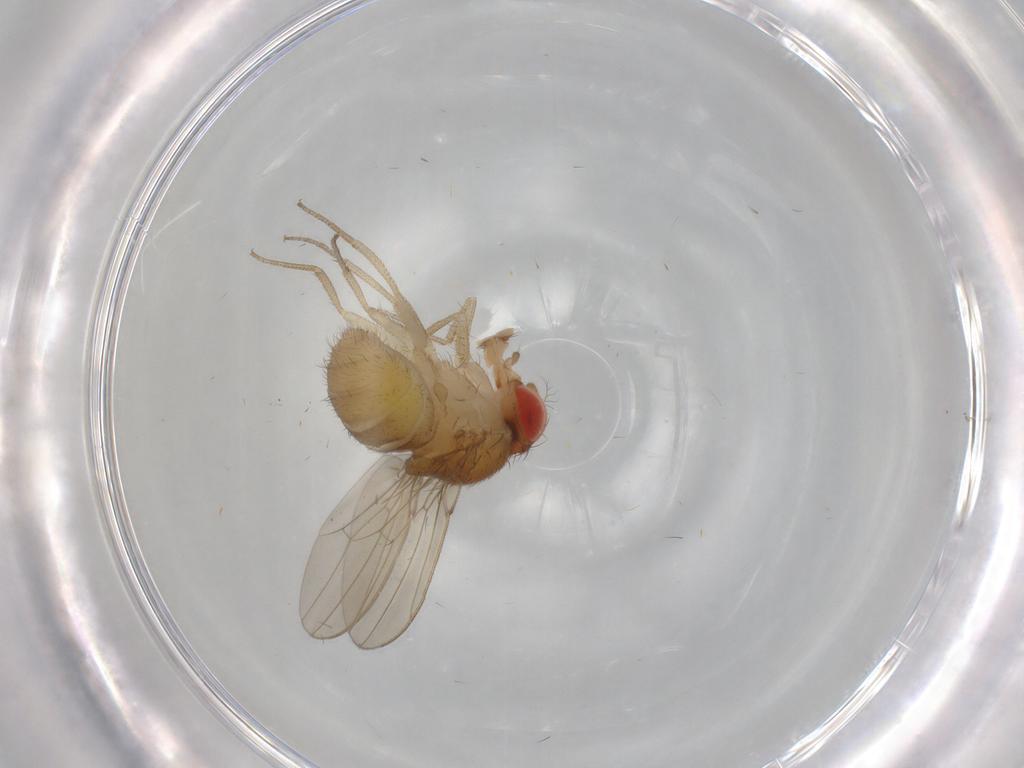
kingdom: Animalia
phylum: Arthropoda
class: Insecta
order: Diptera
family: Drosophilidae
